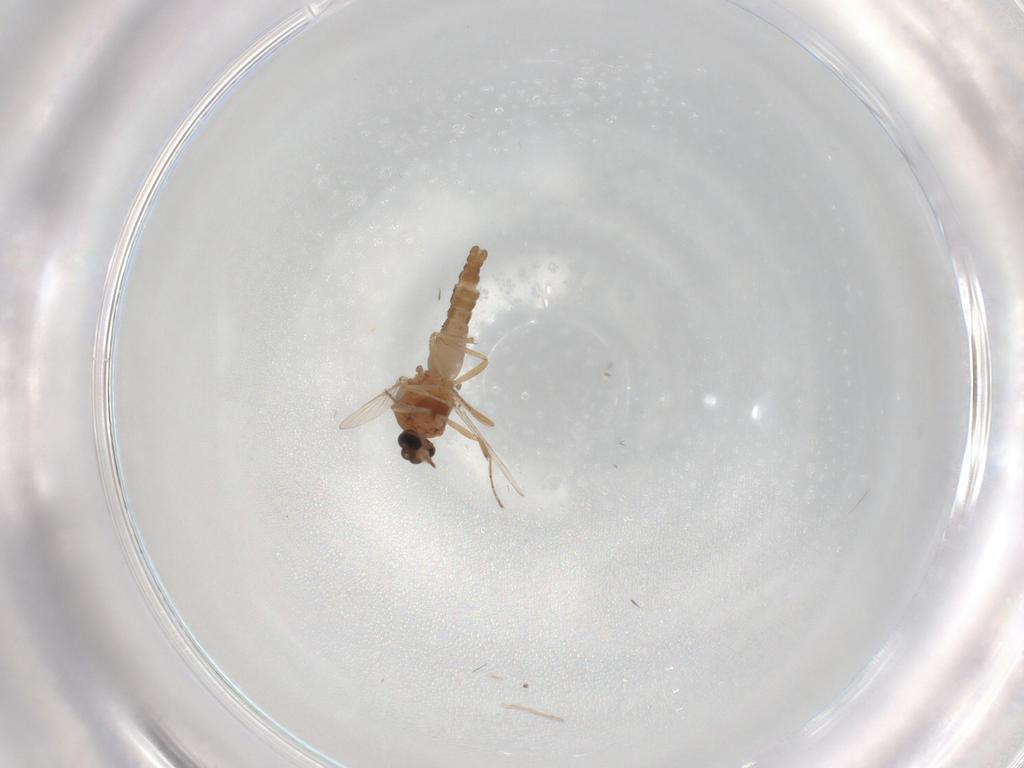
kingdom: Animalia
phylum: Arthropoda
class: Insecta
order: Diptera
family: Ceratopogonidae
